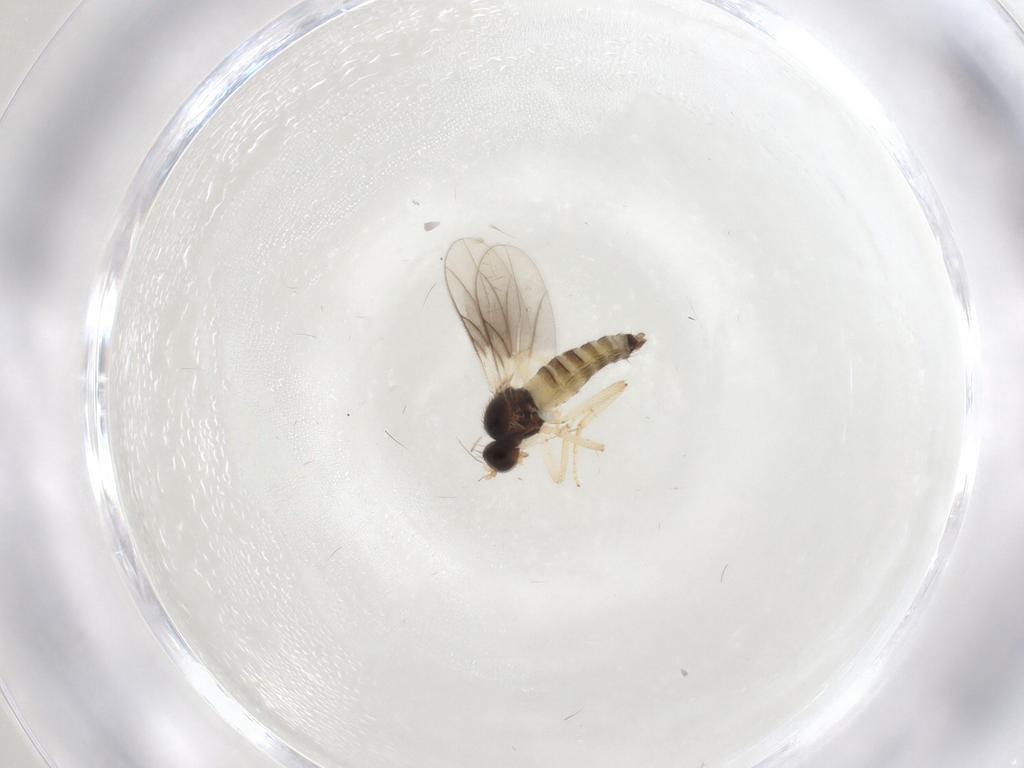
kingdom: Animalia
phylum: Arthropoda
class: Insecta
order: Diptera
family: Hybotidae
